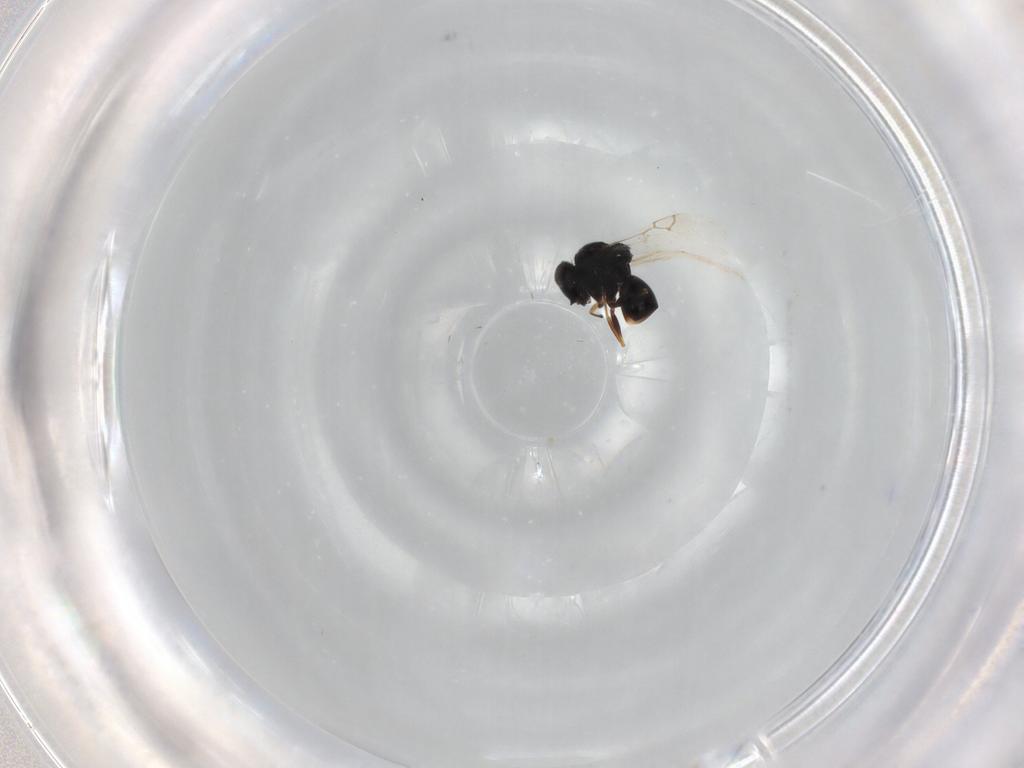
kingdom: Animalia
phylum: Arthropoda
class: Insecta
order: Hymenoptera
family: Figitidae
